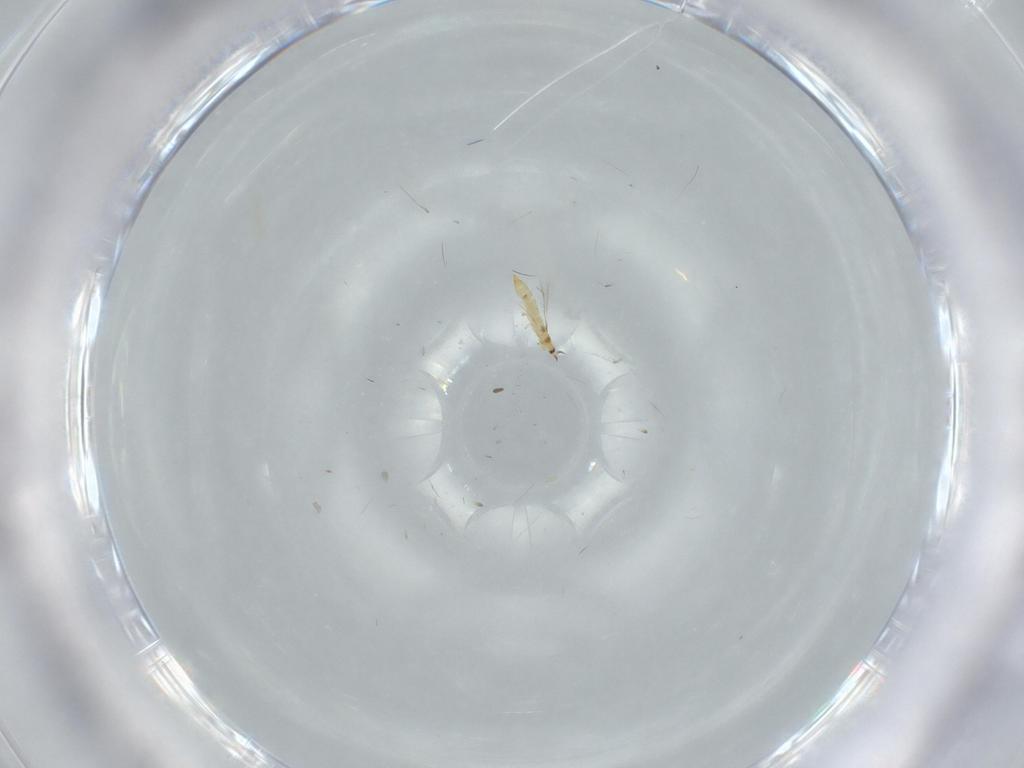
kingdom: Animalia
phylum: Arthropoda
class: Insecta
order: Thysanoptera
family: Phlaeothripidae
